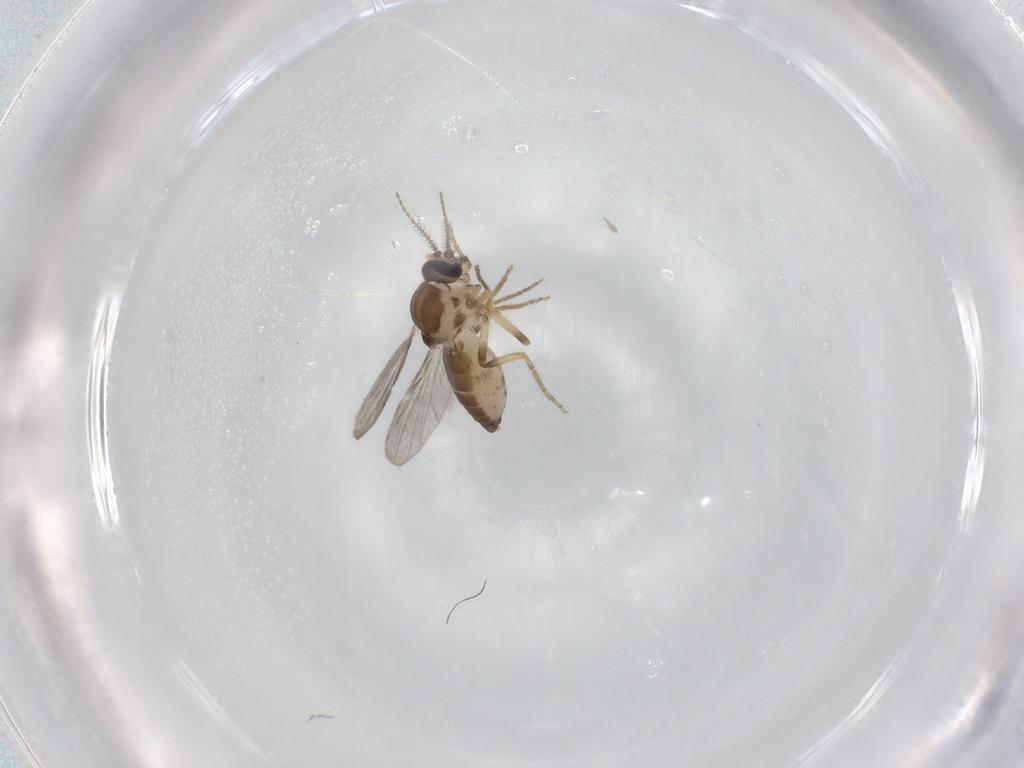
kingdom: Animalia
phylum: Arthropoda
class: Insecta
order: Diptera
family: Ceratopogonidae
